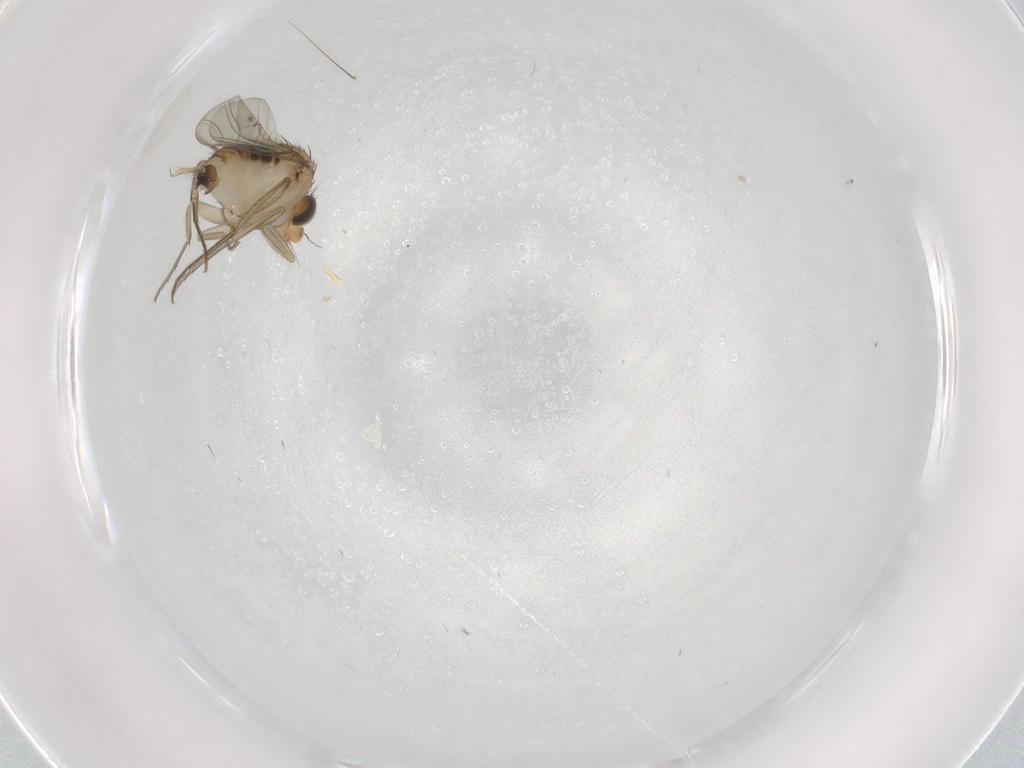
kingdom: Animalia
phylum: Arthropoda
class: Insecta
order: Diptera
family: Phoridae
